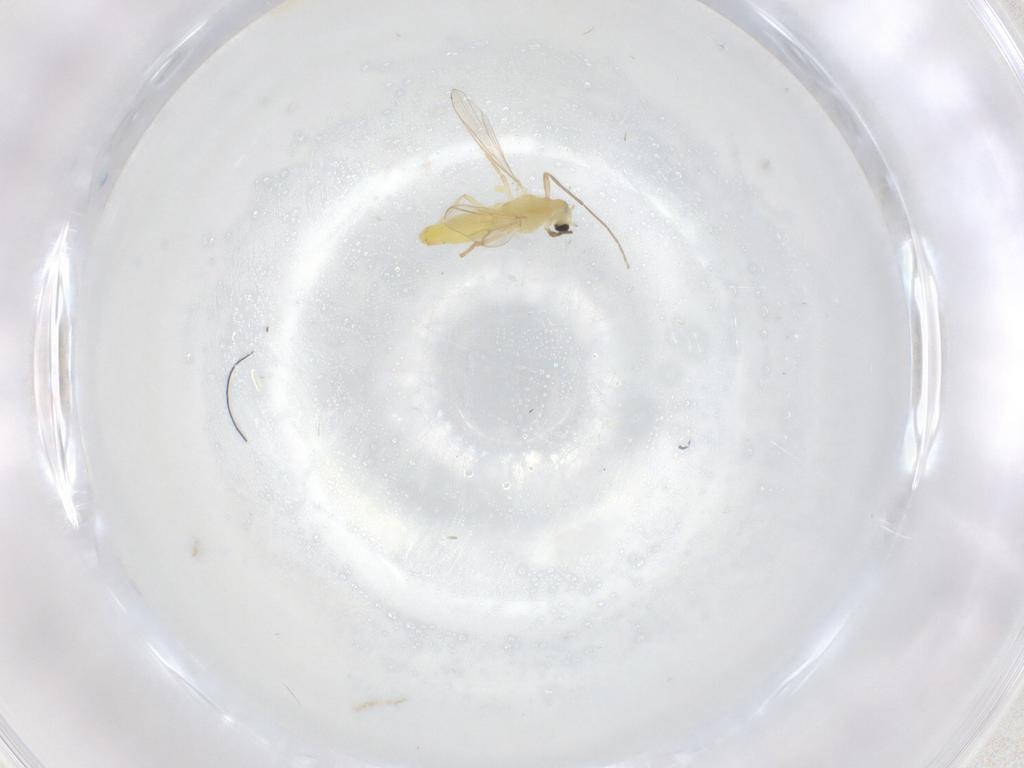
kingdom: Animalia
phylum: Arthropoda
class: Insecta
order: Diptera
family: Chironomidae
